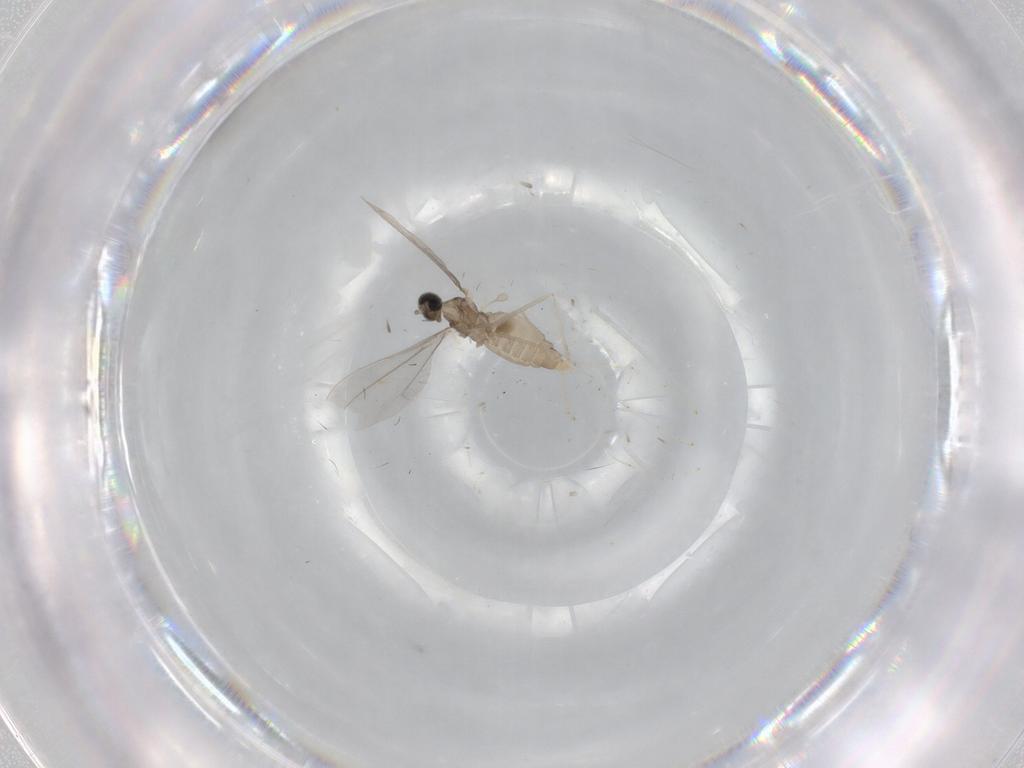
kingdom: Animalia
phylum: Arthropoda
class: Insecta
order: Diptera
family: Cecidomyiidae
